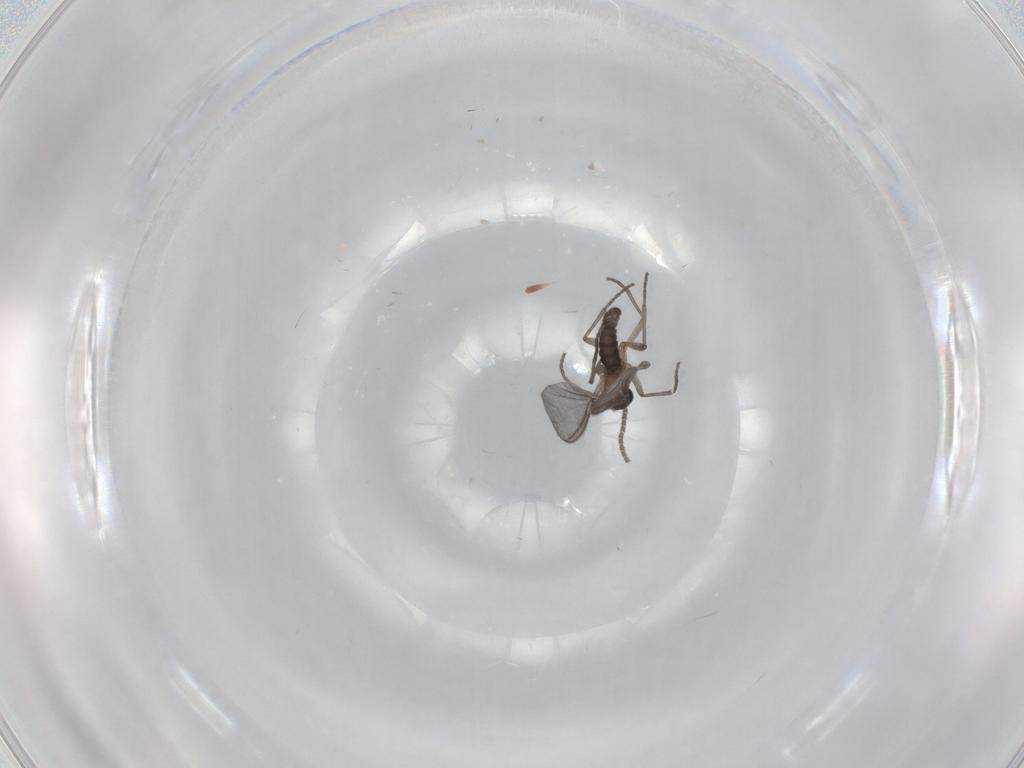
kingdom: Animalia
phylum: Arthropoda
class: Insecta
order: Diptera
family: Sciaridae
